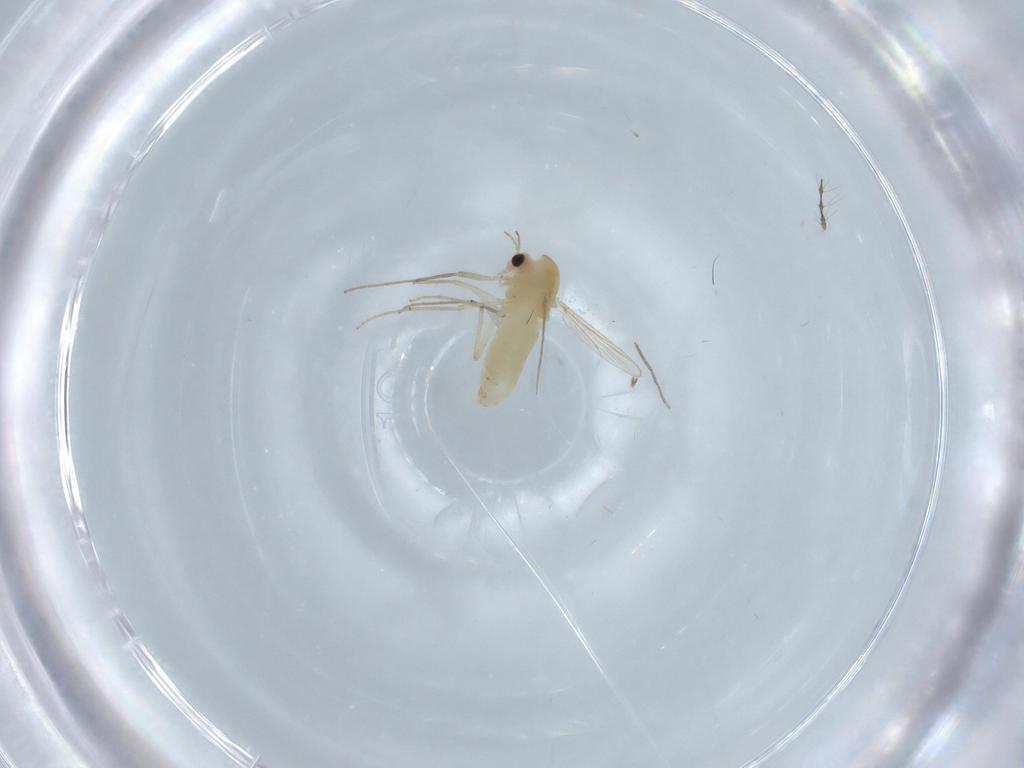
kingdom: Animalia
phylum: Arthropoda
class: Insecta
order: Diptera
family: Chironomidae
